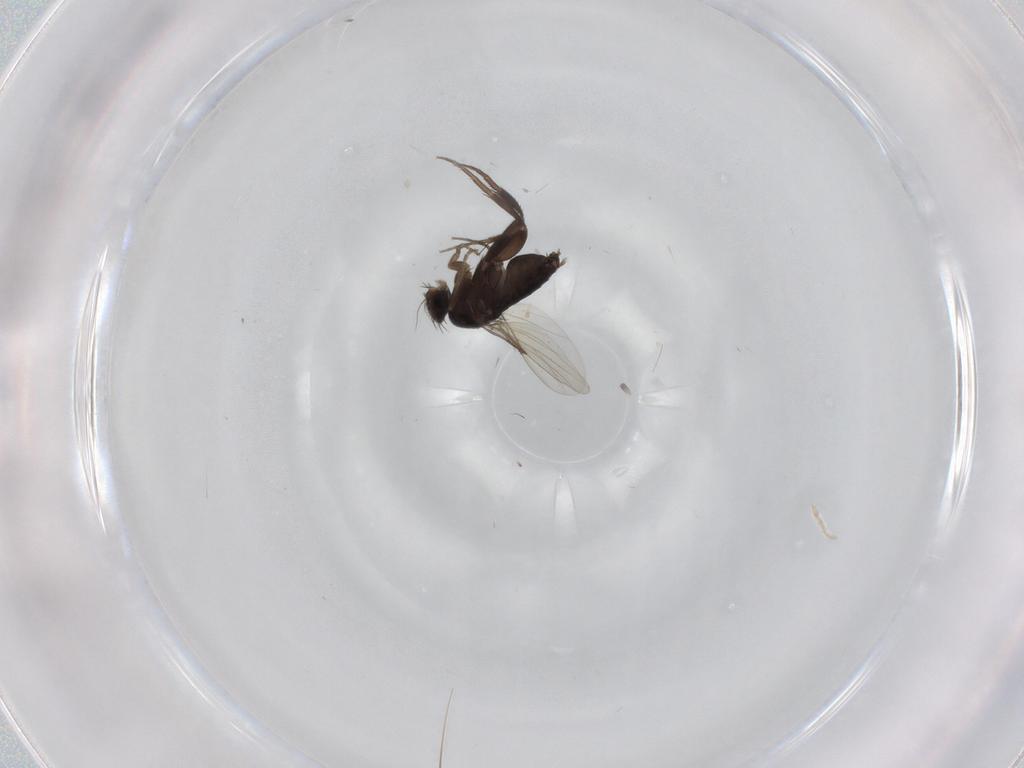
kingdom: Animalia
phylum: Arthropoda
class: Insecta
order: Diptera
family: Phoridae
